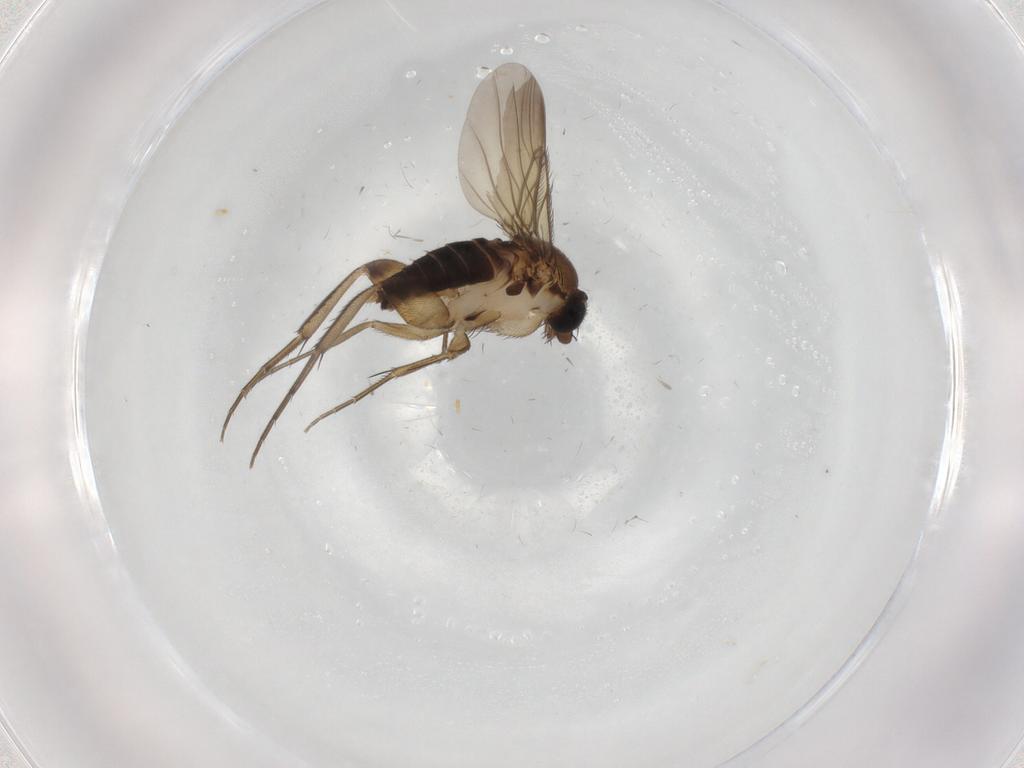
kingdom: Animalia
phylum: Arthropoda
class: Insecta
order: Diptera
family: Phoridae
